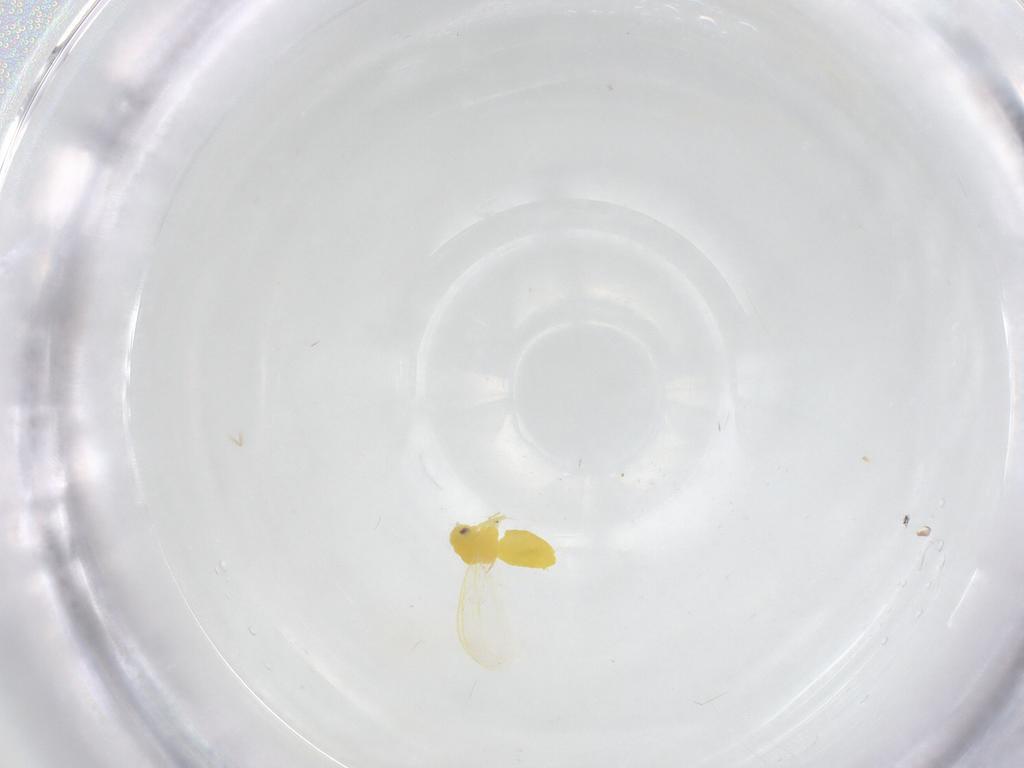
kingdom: Animalia
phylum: Arthropoda
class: Insecta
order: Hemiptera
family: Aleyrodidae
